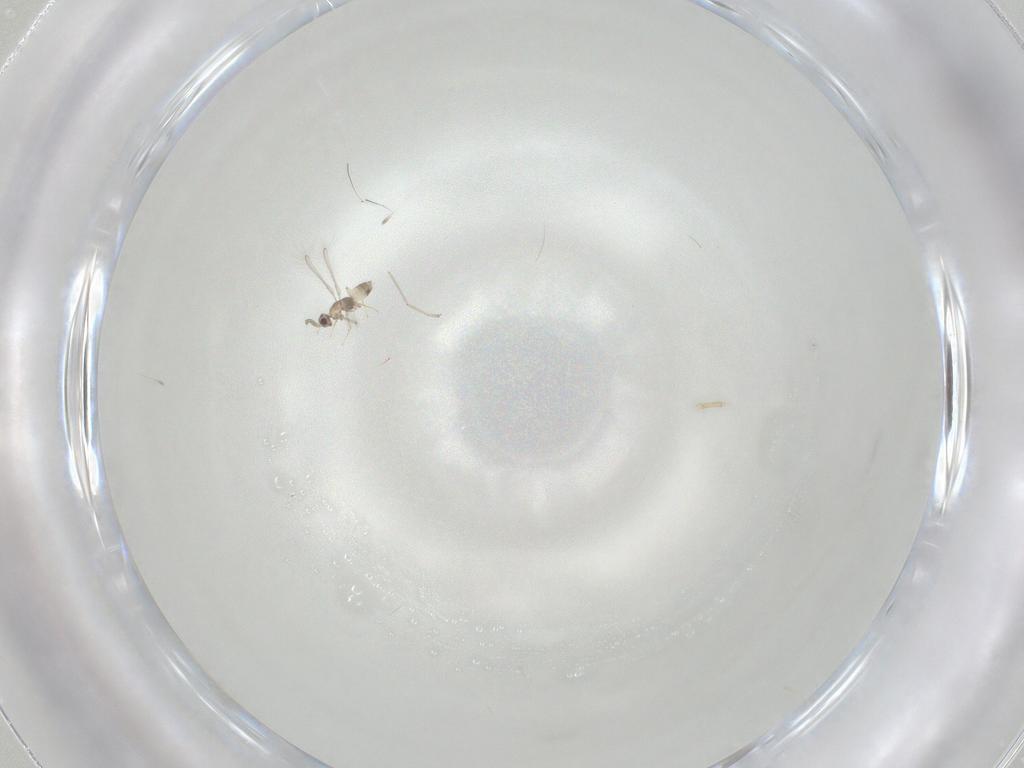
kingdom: Animalia
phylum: Arthropoda
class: Insecta
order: Hymenoptera
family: Mymaridae
